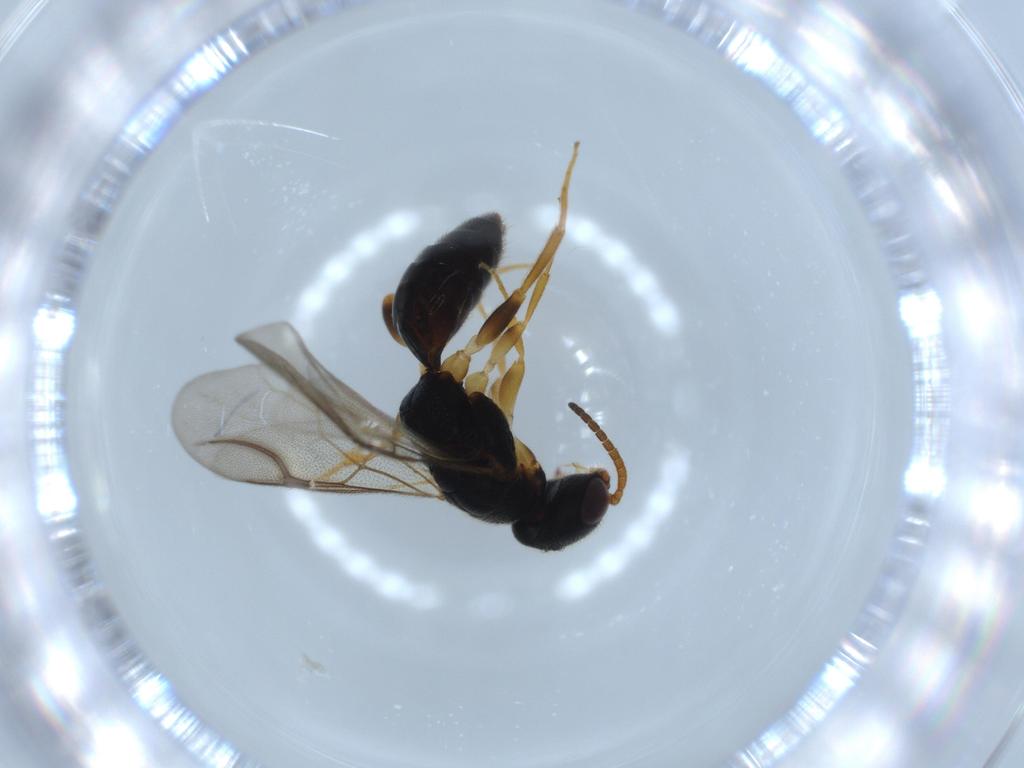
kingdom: Animalia
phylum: Arthropoda
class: Insecta
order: Hymenoptera
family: Bethylidae
